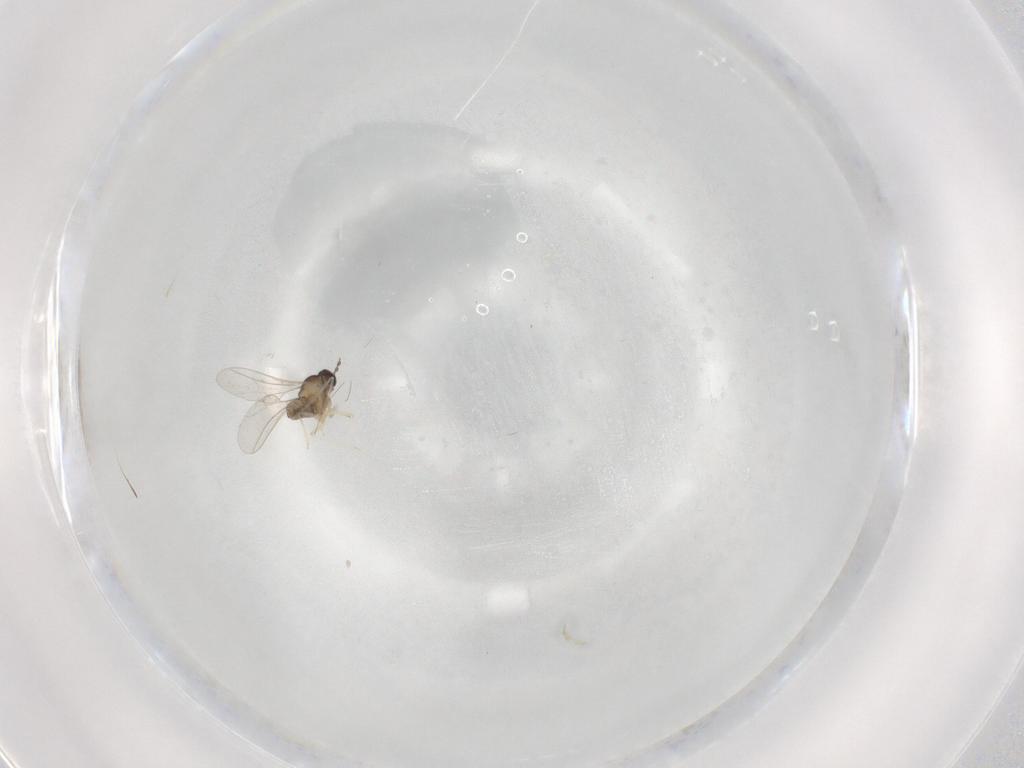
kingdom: Animalia
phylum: Arthropoda
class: Insecta
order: Diptera
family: Cecidomyiidae
